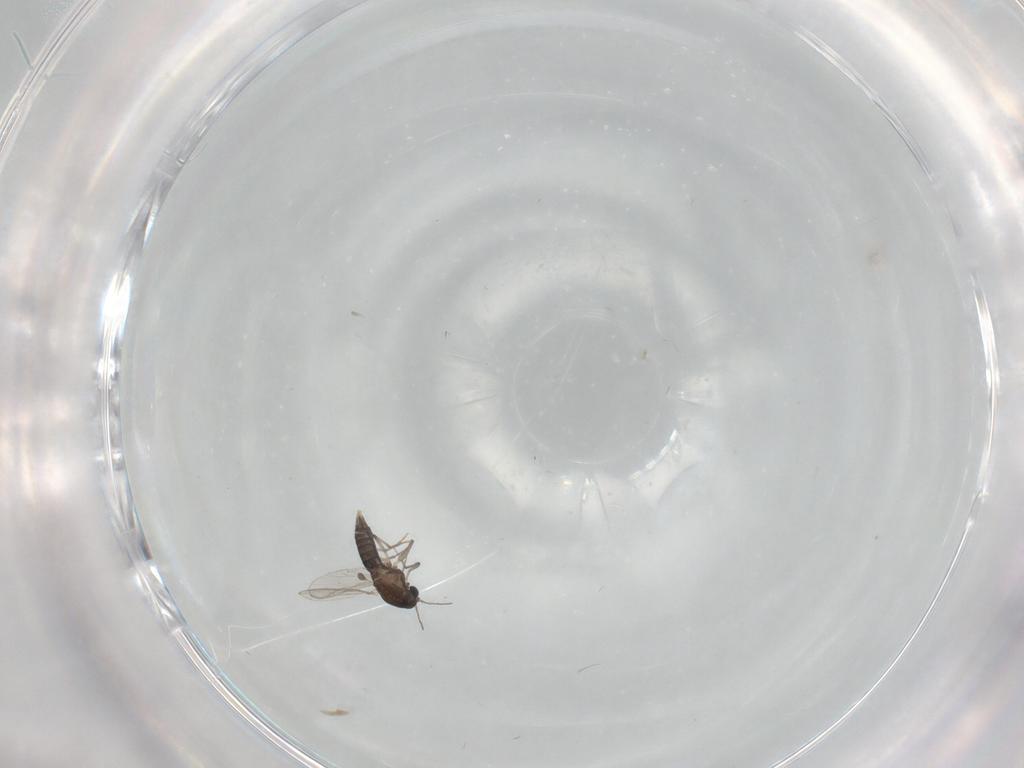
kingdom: Animalia
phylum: Arthropoda
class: Insecta
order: Diptera
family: Chironomidae
